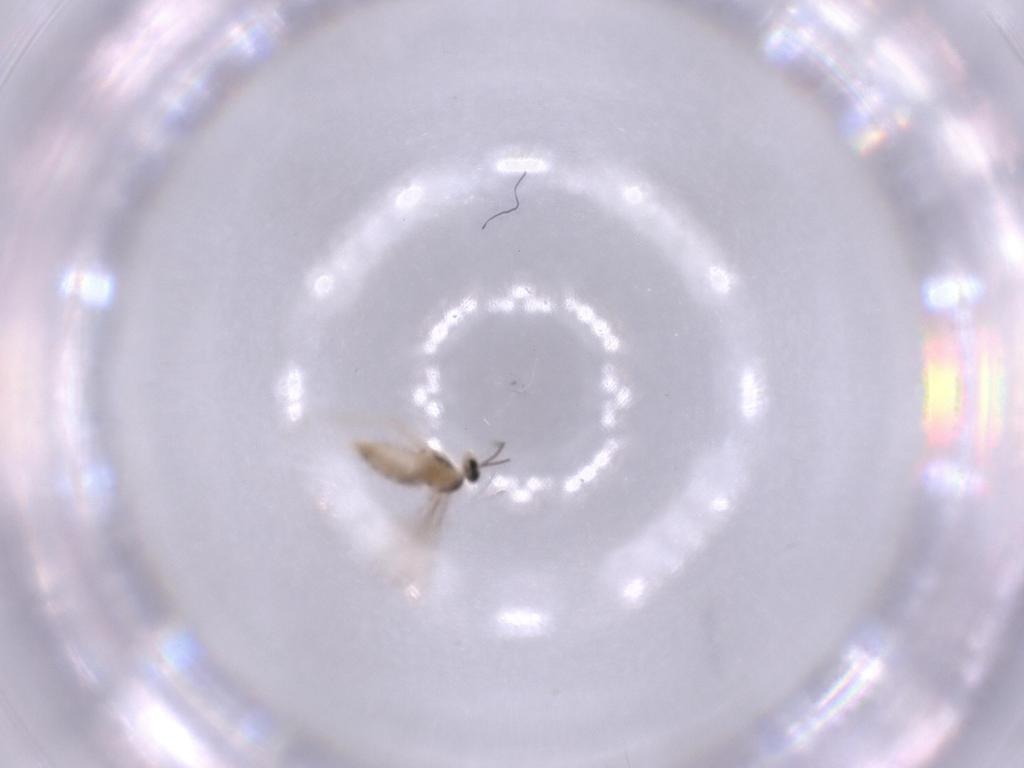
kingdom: Animalia
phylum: Arthropoda
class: Insecta
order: Diptera
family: Cecidomyiidae
